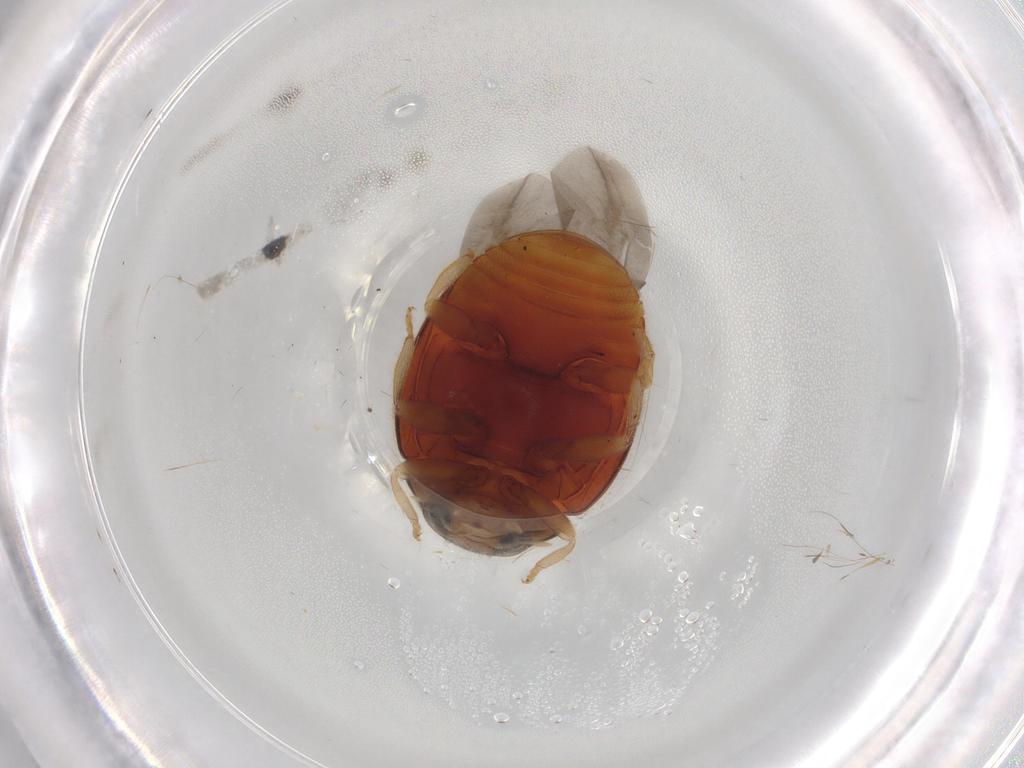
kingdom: Animalia
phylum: Arthropoda
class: Insecta
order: Coleoptera
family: Coccinellidae
